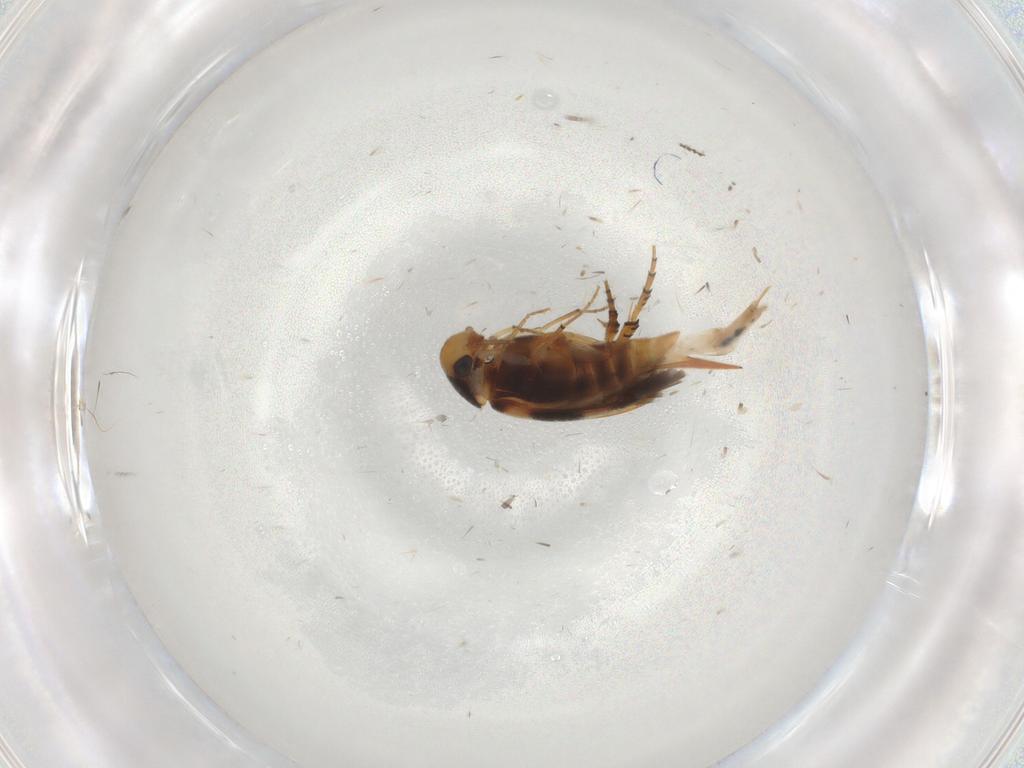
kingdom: Animalia
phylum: Arthropoda
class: Insecta
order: Coleoptera
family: Mordellidae
